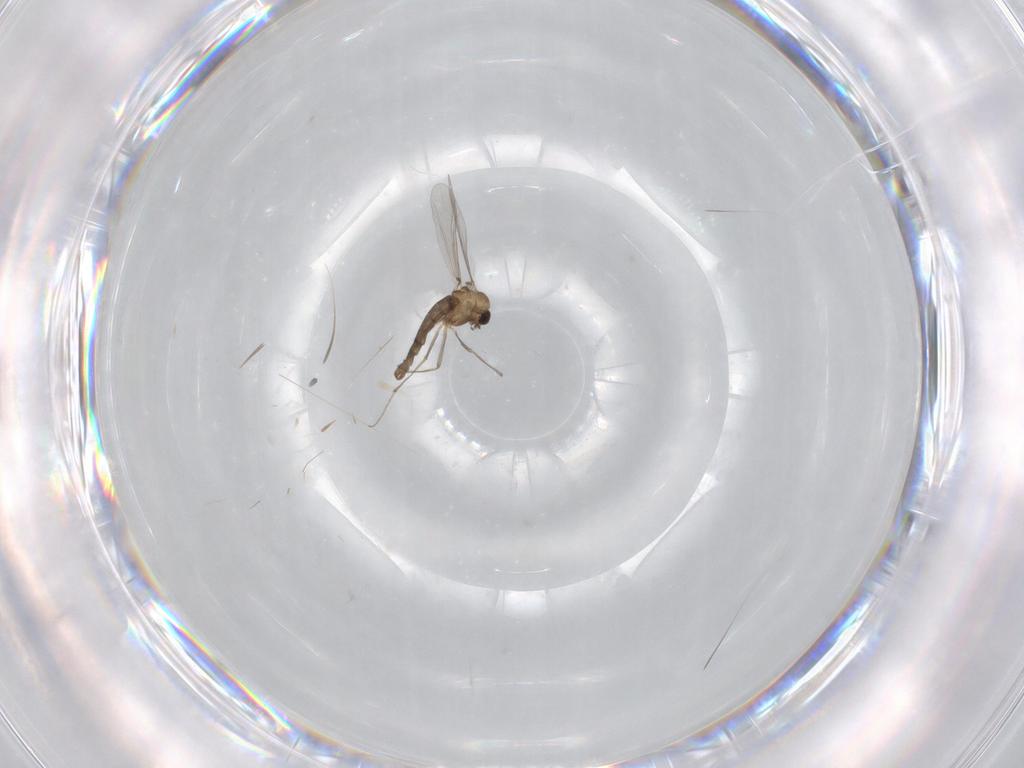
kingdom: Animalia
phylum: Arthropoda
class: Insecta
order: Diptera
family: Chironomidae
